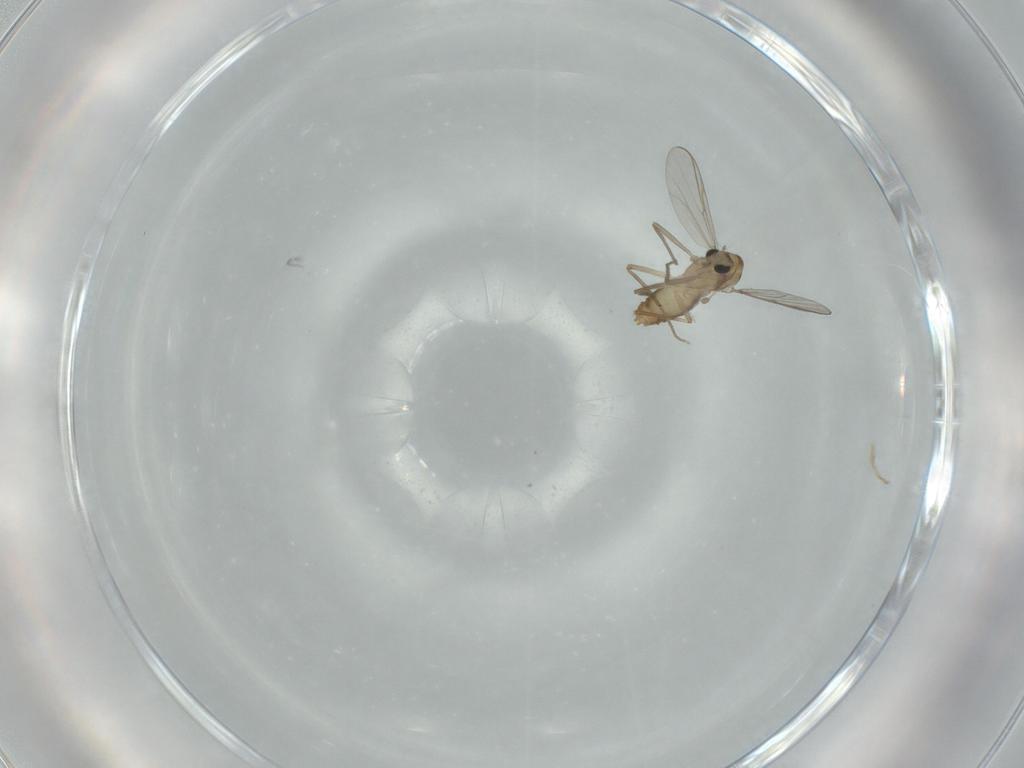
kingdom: Animalia
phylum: Arthropoda
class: Insecta
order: Diptera
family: Chironomidae
